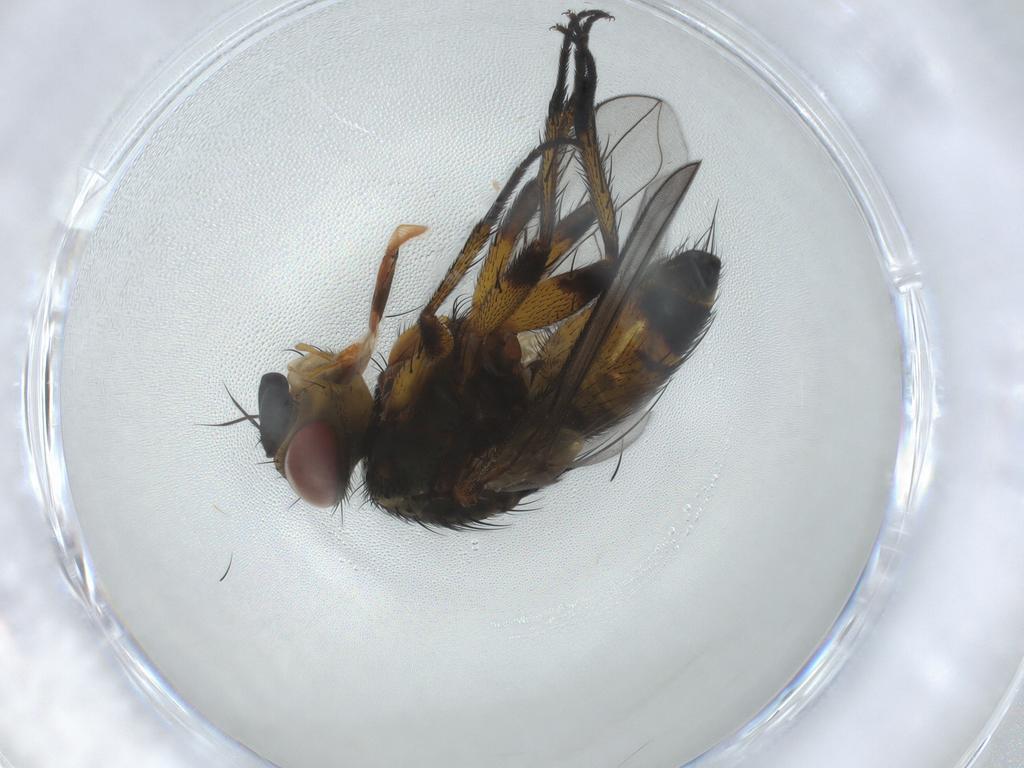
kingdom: Animalia
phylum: Arthropoda
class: Insecta
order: Diptera
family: Tachinidae
